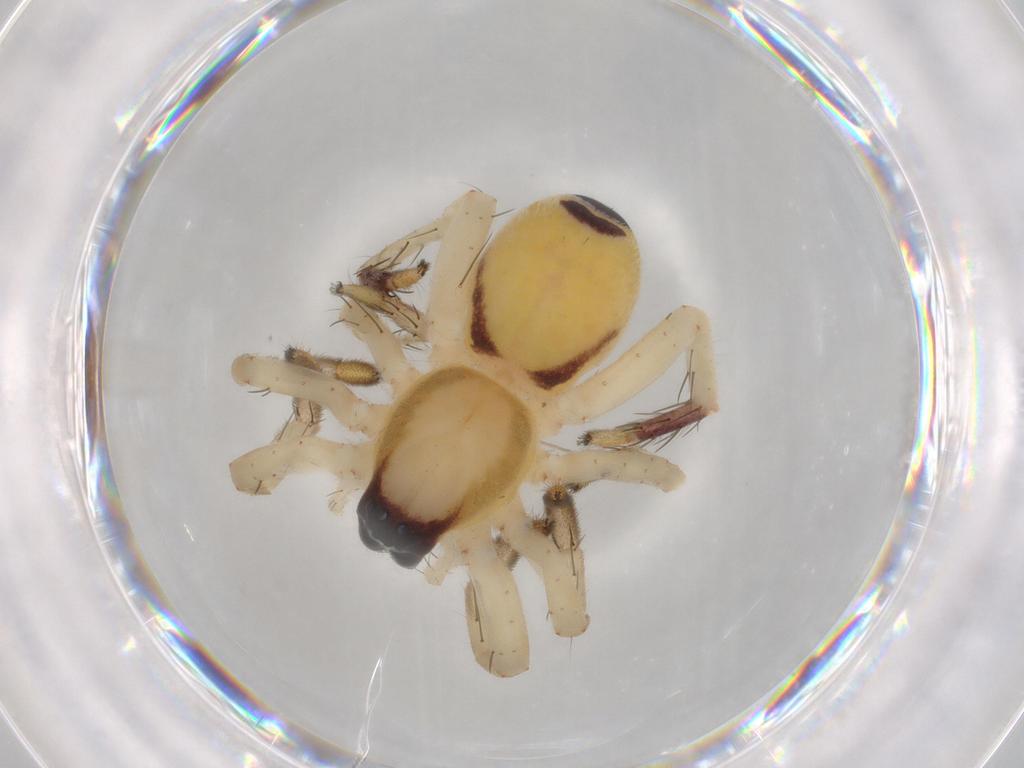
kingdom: Animalia
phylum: Arthropoda
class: Arachnida
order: Araneae
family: Anyphaenidae
